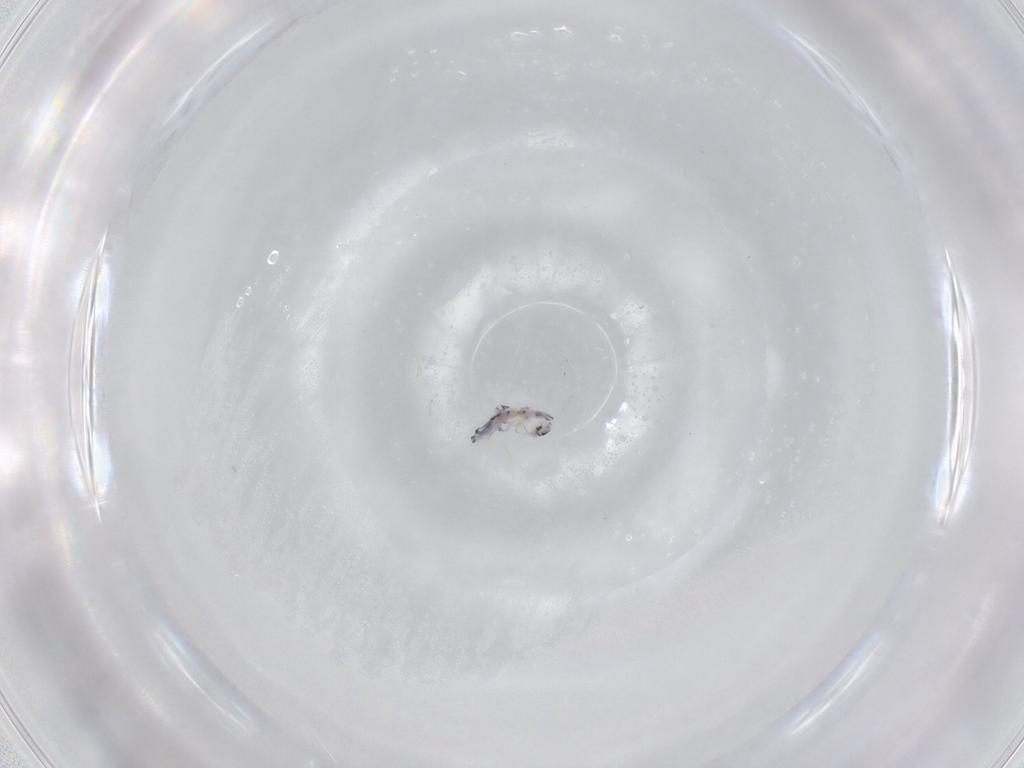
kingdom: Animalia
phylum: Arthropoda
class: Collembola
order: Entomobryomorpha
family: Entomobryidae
